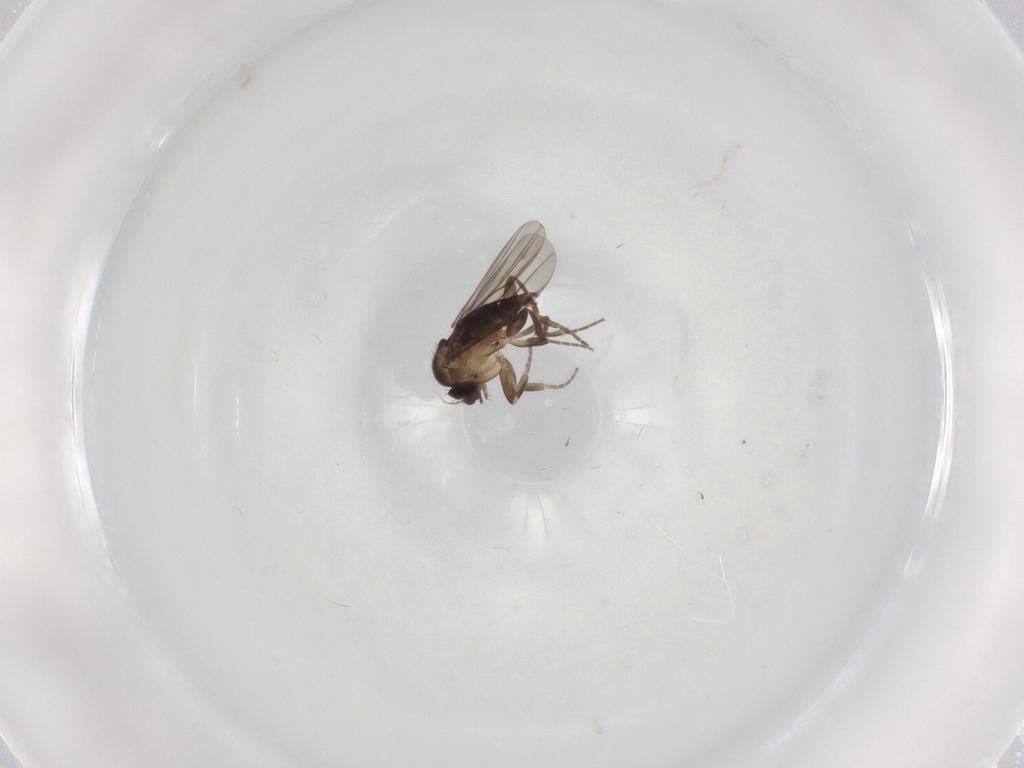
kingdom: Animalia
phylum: Arthropoda
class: Insecta
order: Diptera
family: Phoridae
